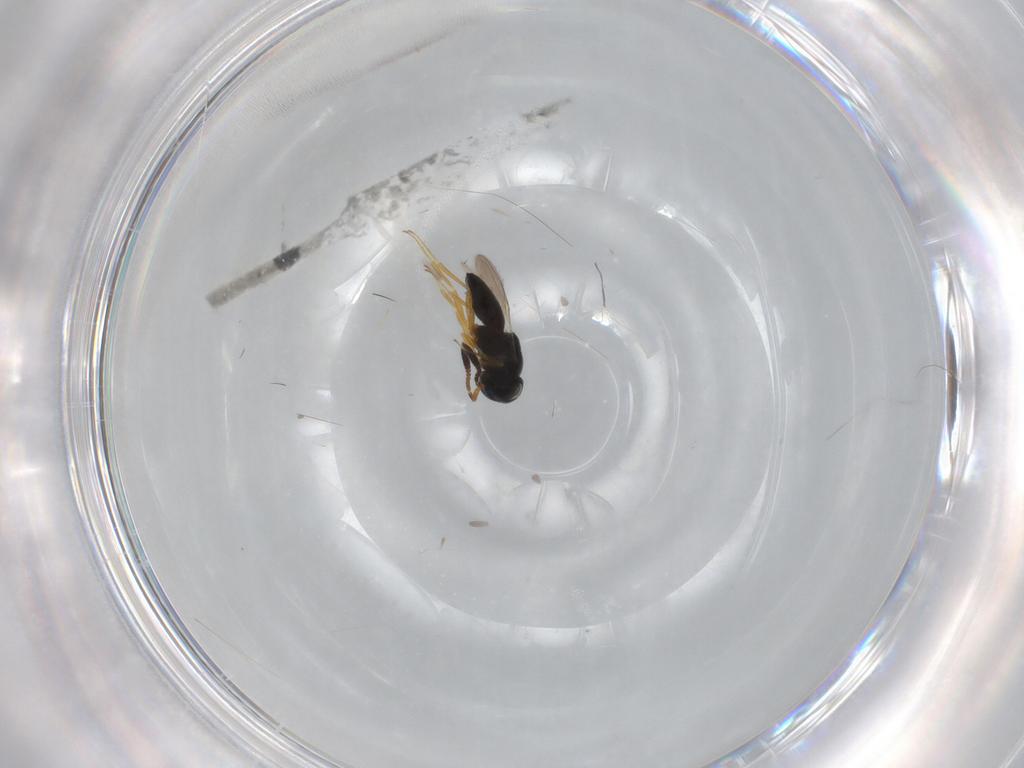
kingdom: Animalia
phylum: Arthropoda
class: Insecta
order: Hymenoptera
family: Scelionidae
